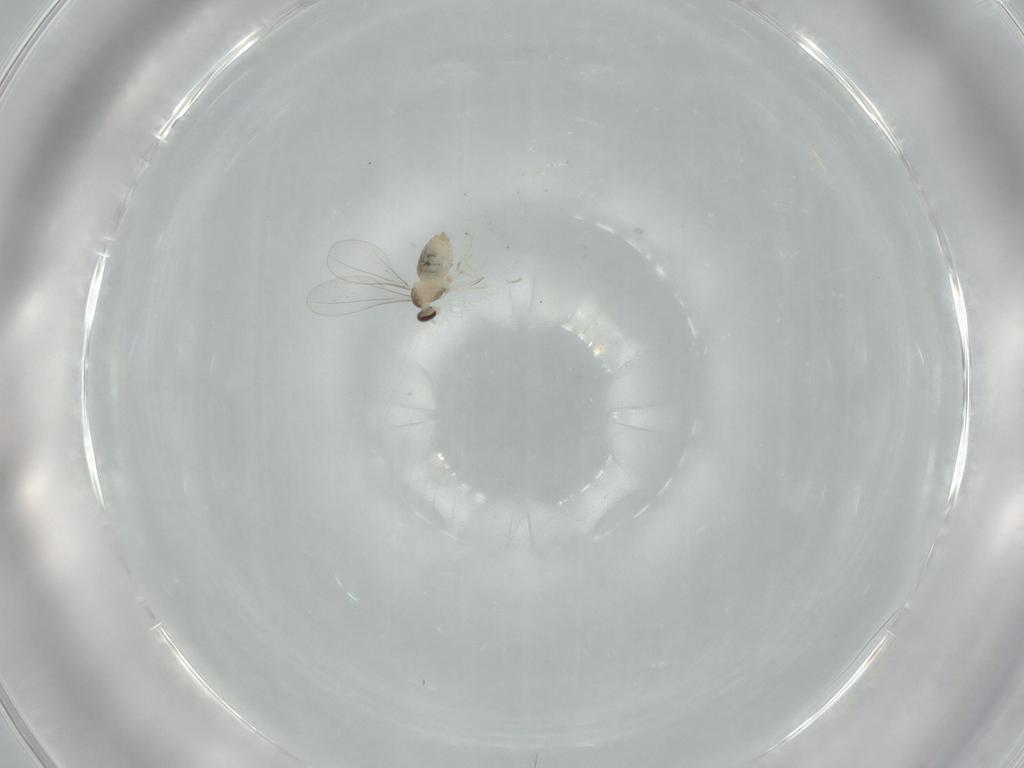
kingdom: Animalia
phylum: Arthropoda
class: Insecta
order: Diptera
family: Cecidomyiidae
